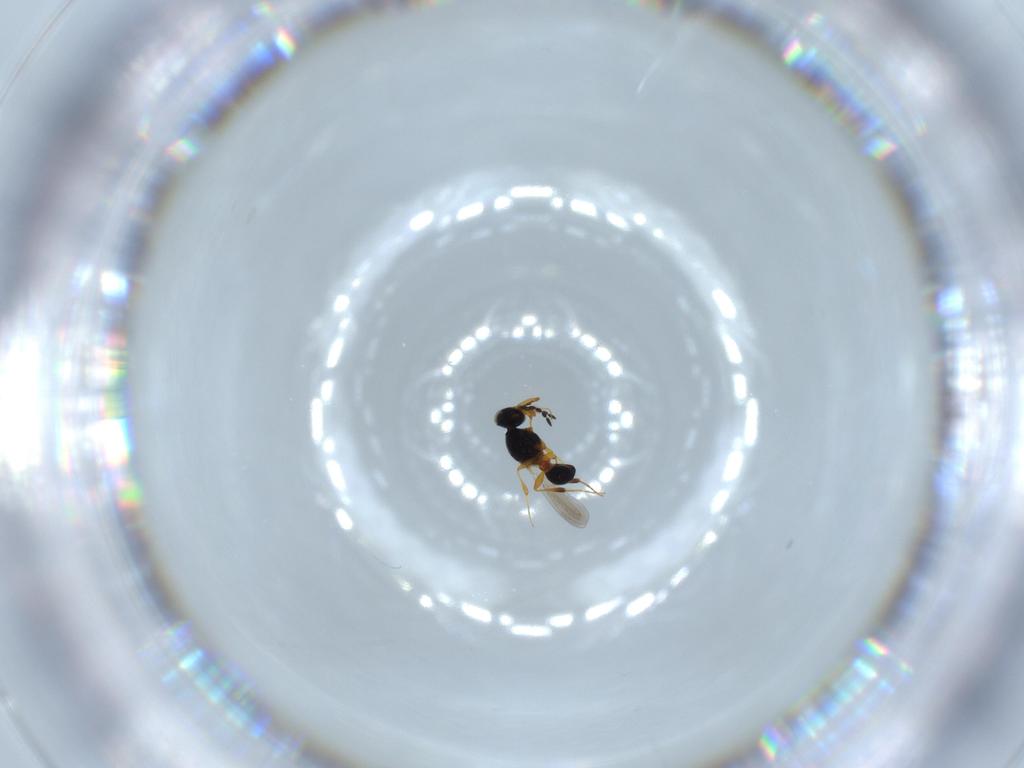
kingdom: Animalia
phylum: Arthropoda
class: Insecta
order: Hymenoptera
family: Platygastridae
